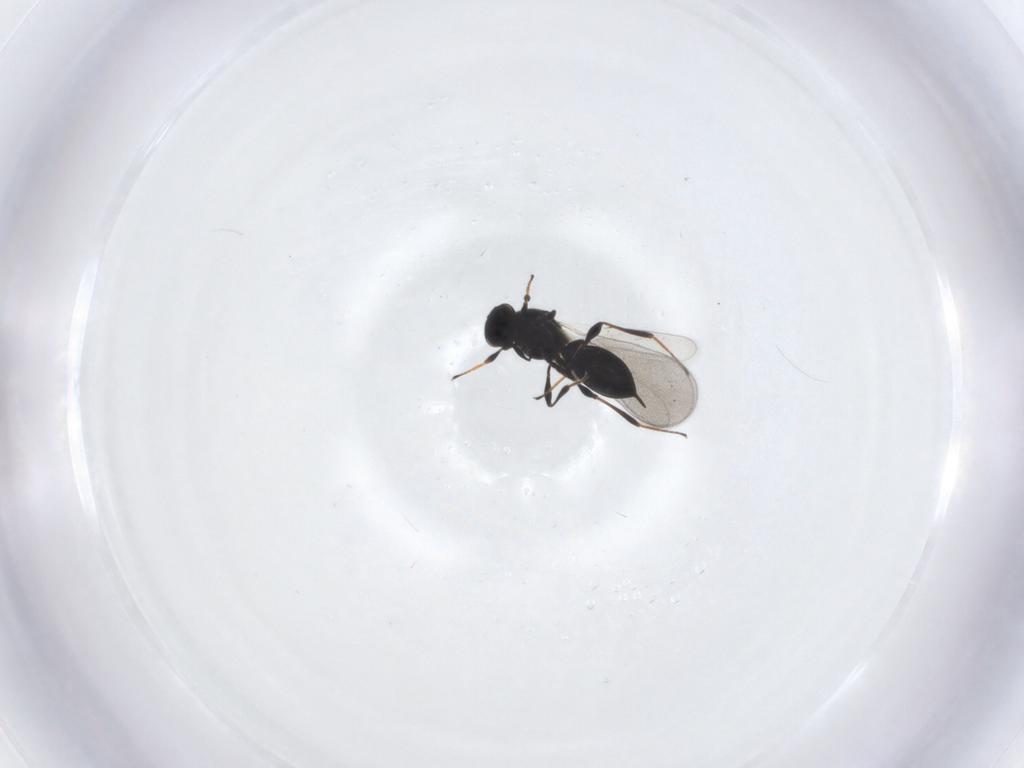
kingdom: Animalia
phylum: Arthropoda
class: Insecta
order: Hymenoptera
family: Platygastridae
